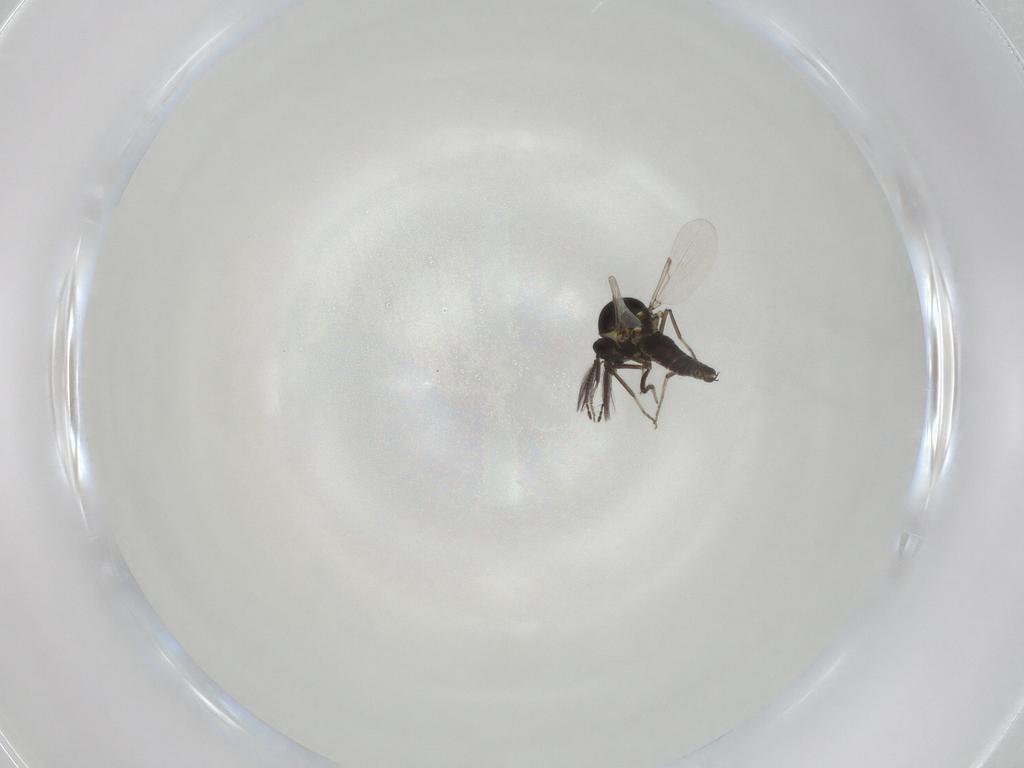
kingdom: Animalia
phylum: Arthropoda
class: Insecta
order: Diptera
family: Ceratopogonidae
